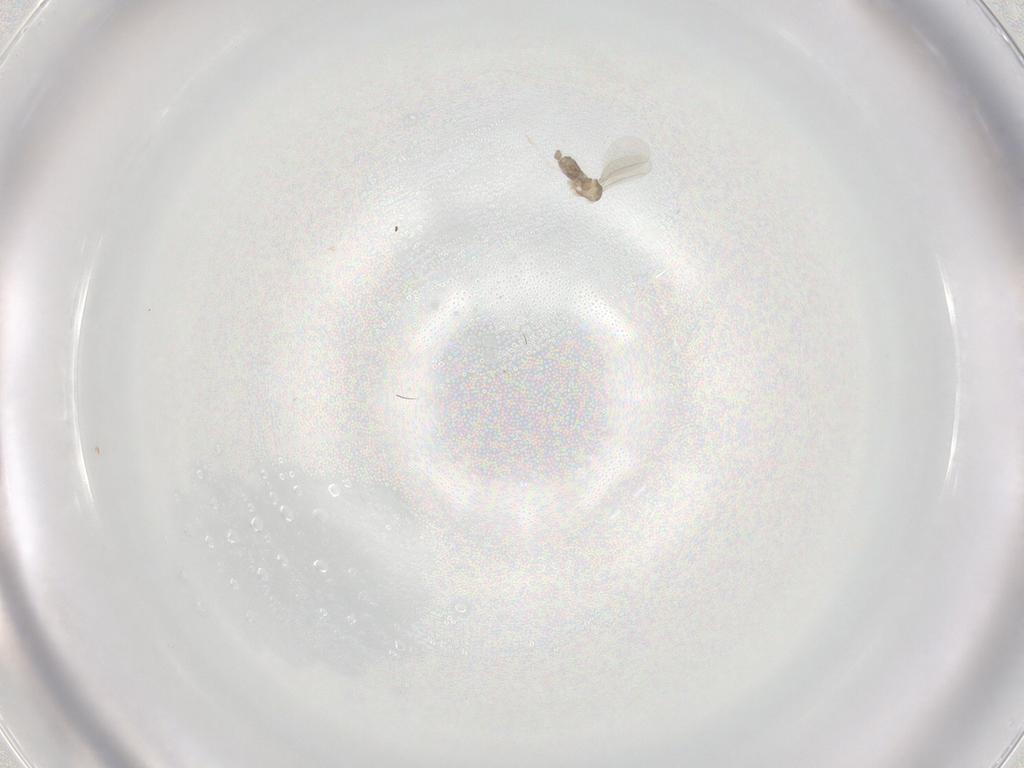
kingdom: Animalia
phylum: Arthropoda
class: Insecta
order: Diptera
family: Cecidomyiidae
